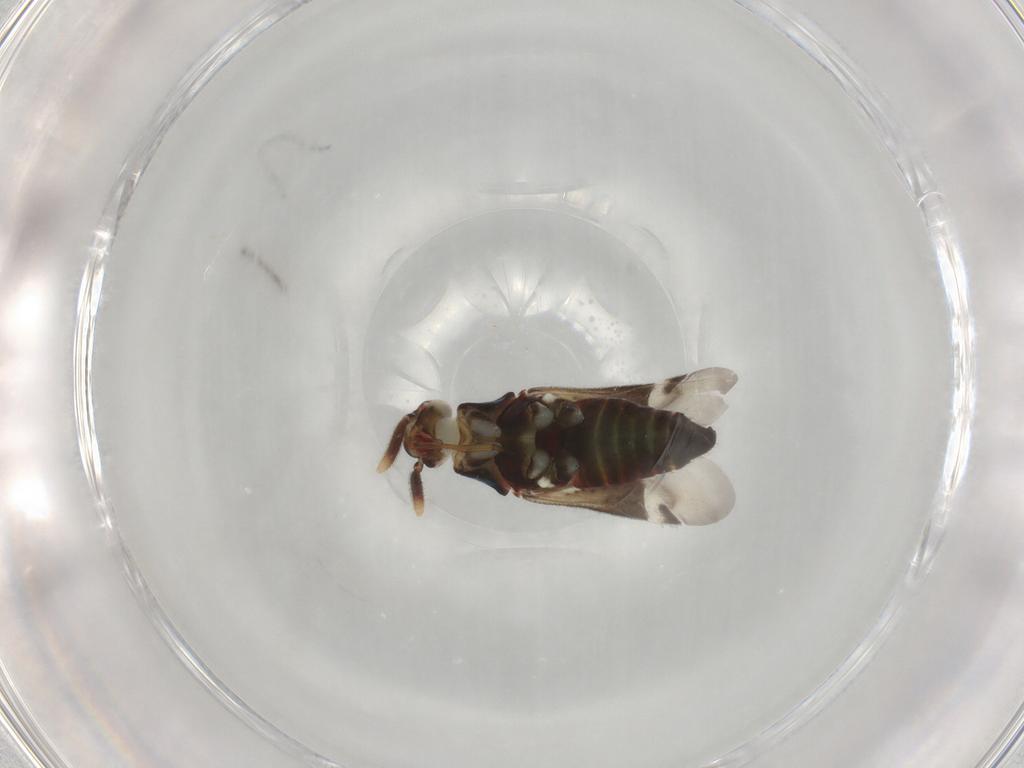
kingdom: Animalia
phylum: Arthropoda
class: Insecta
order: Hemiptera
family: Miridae
